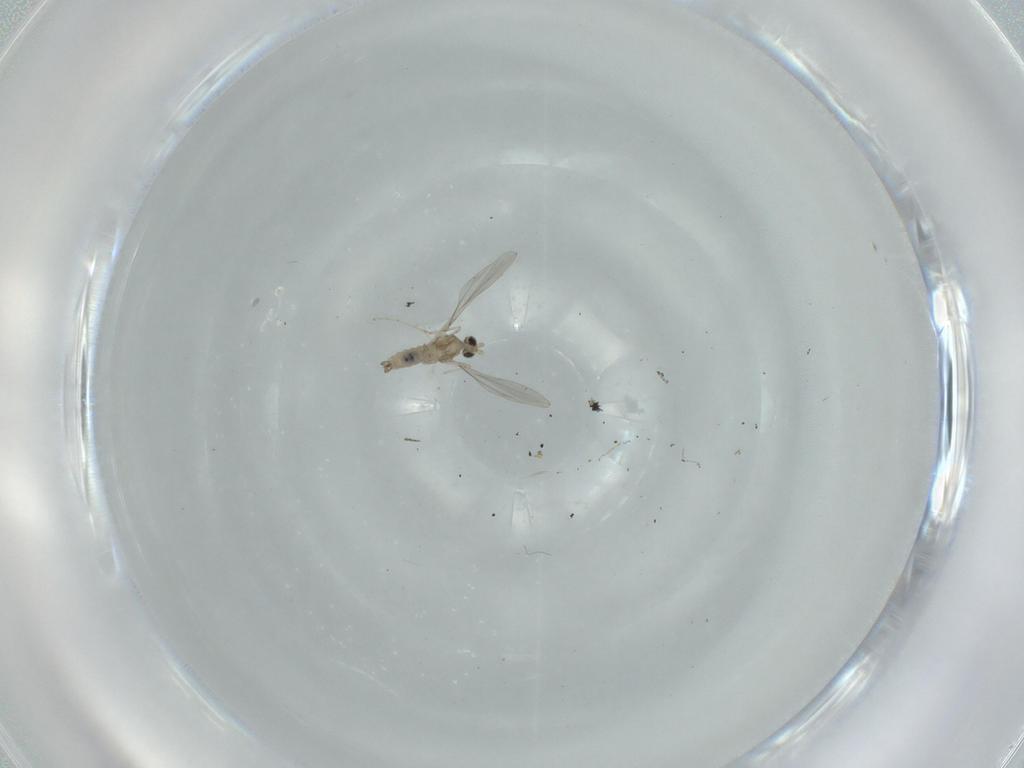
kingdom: Animalia
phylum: Arthropoda
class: Insecta
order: Diptera
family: Cecidomyiidae
